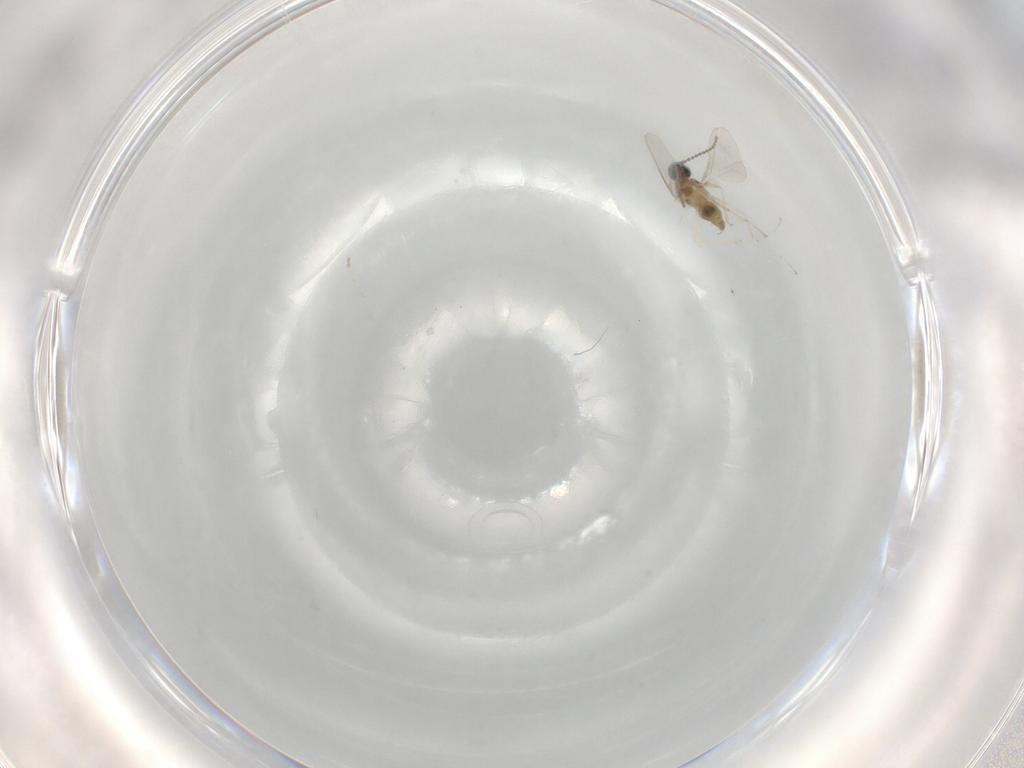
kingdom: Animalia
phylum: Arthropoda
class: Insecta
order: Diptera
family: Cecidomyiidae
